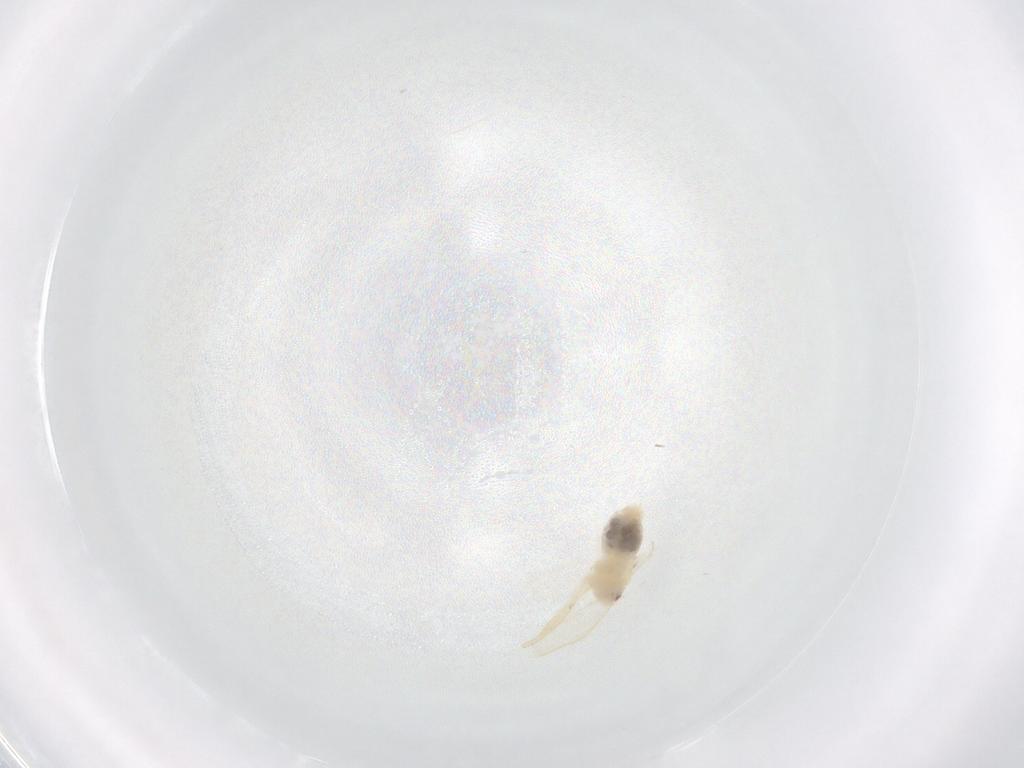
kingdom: Animalia
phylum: Arthropoda
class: Insecta
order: Hemiptera
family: Aleyrodidae
